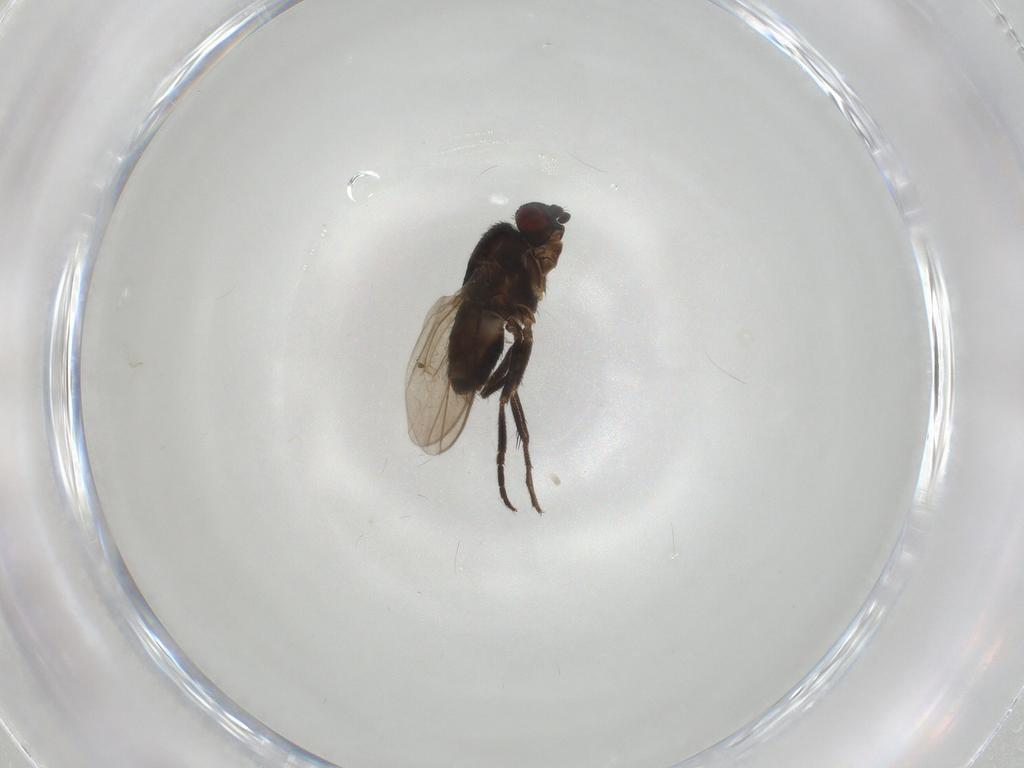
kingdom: Animalia
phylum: Arthropoda
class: Insecta
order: Diptera
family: Sphaeroceridae
